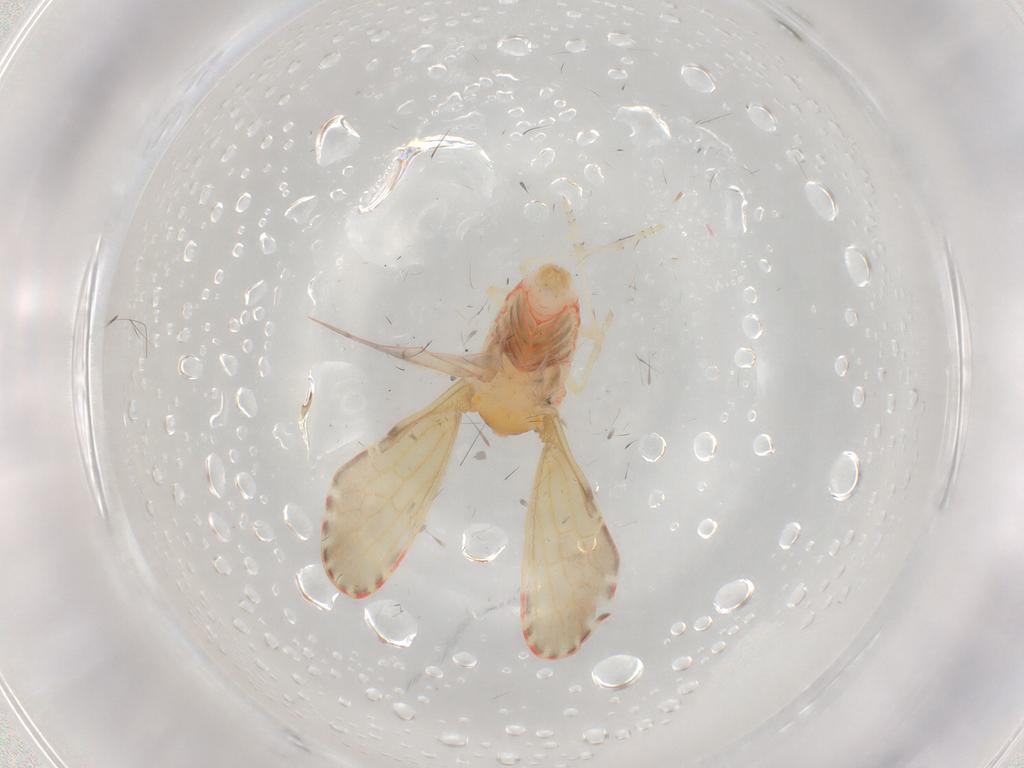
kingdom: Animalia
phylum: Arthropoda
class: Insecta
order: Hemiptera
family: Derbidae
